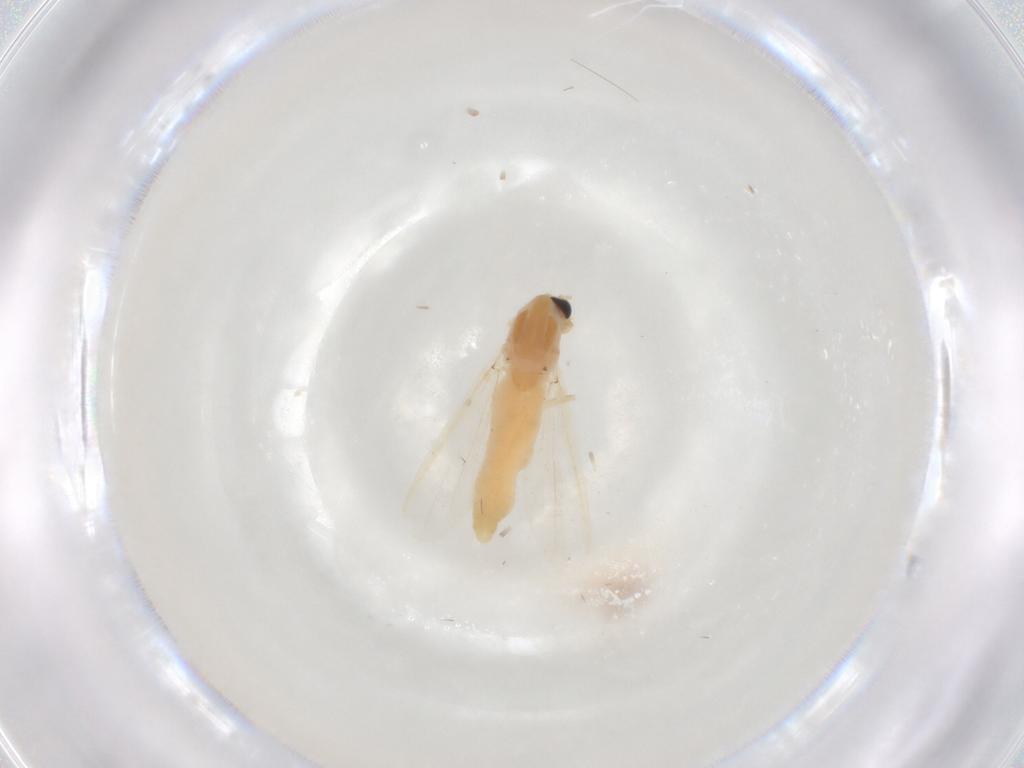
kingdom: Animalia
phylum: Arthropoda
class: Insecta
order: Diptera
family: Chironomidae
